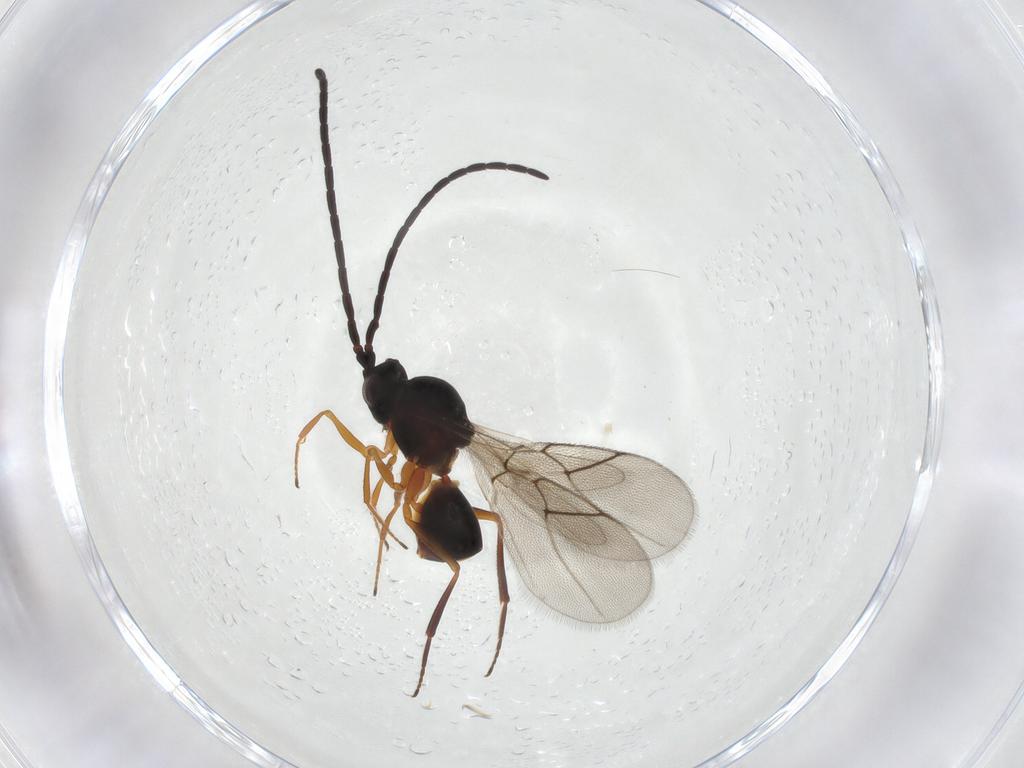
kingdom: Animalia
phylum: Arthropoda
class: Insecta
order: Hymenoptera
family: Figitidae
